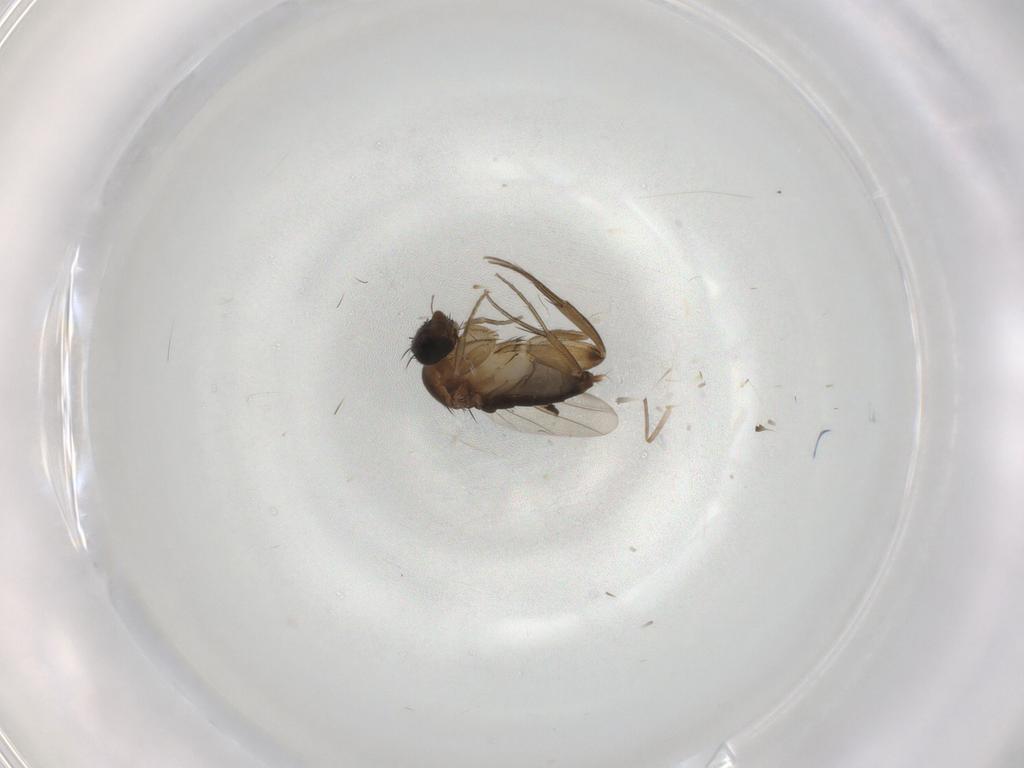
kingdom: Animalia
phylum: Arthropoda
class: Insecta
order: Diptera
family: Phoridae
